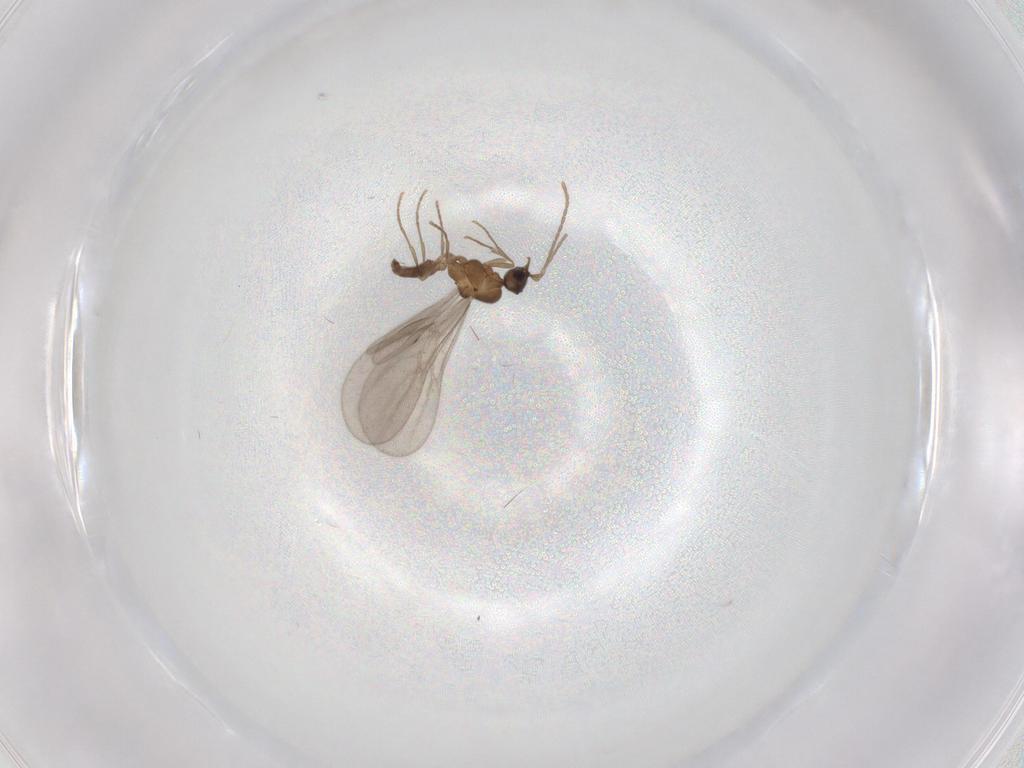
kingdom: Animalia
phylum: Arthropoda
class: Insecta
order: Hymenoptera
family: Formicidae
